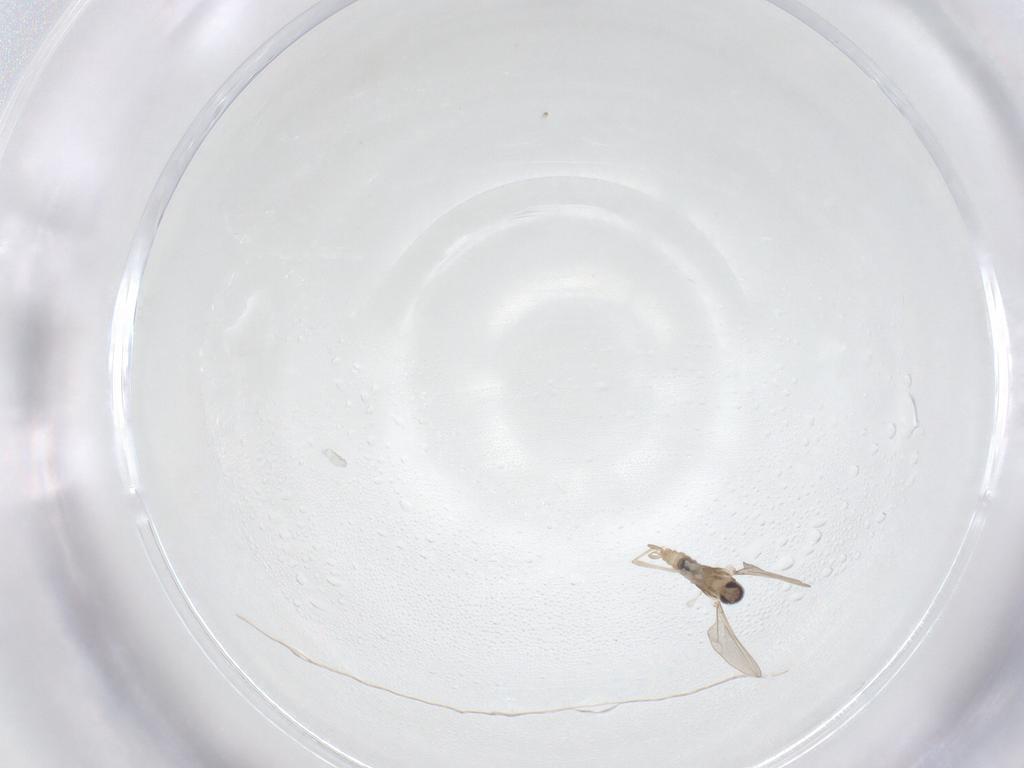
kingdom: Animalia
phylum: Arthropoda
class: Insecta
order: Diptera
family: Cecidomyiidae
